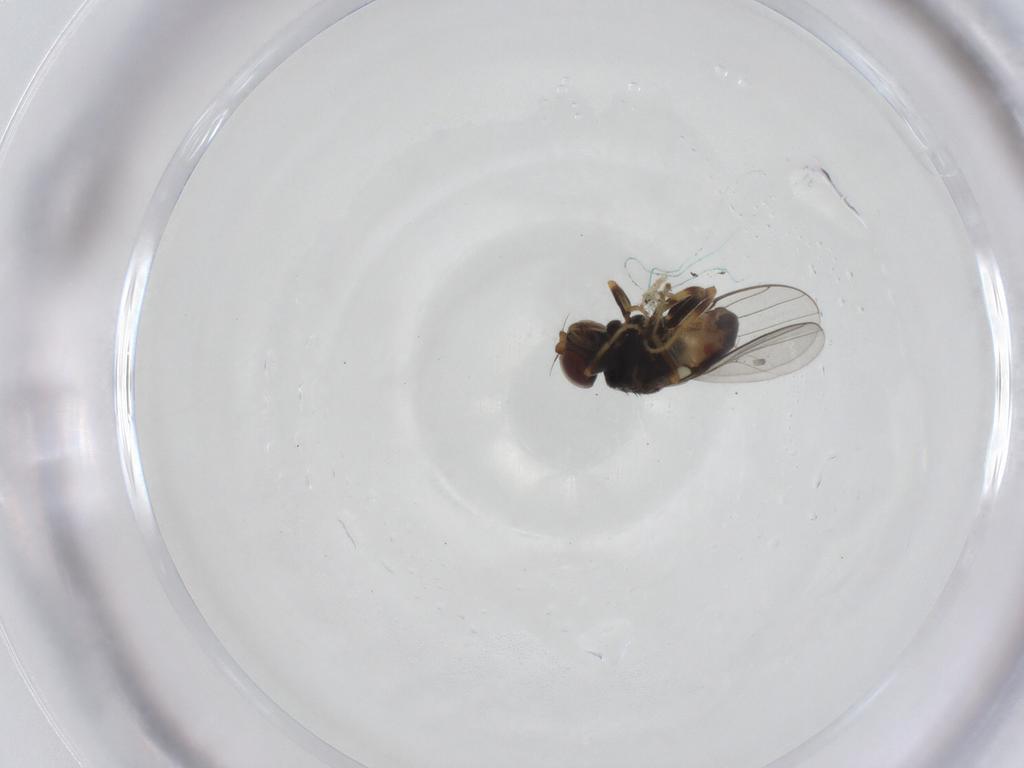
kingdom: Animalia
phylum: Arthropoda
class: Insecta
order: Diptera
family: Chloropidae
